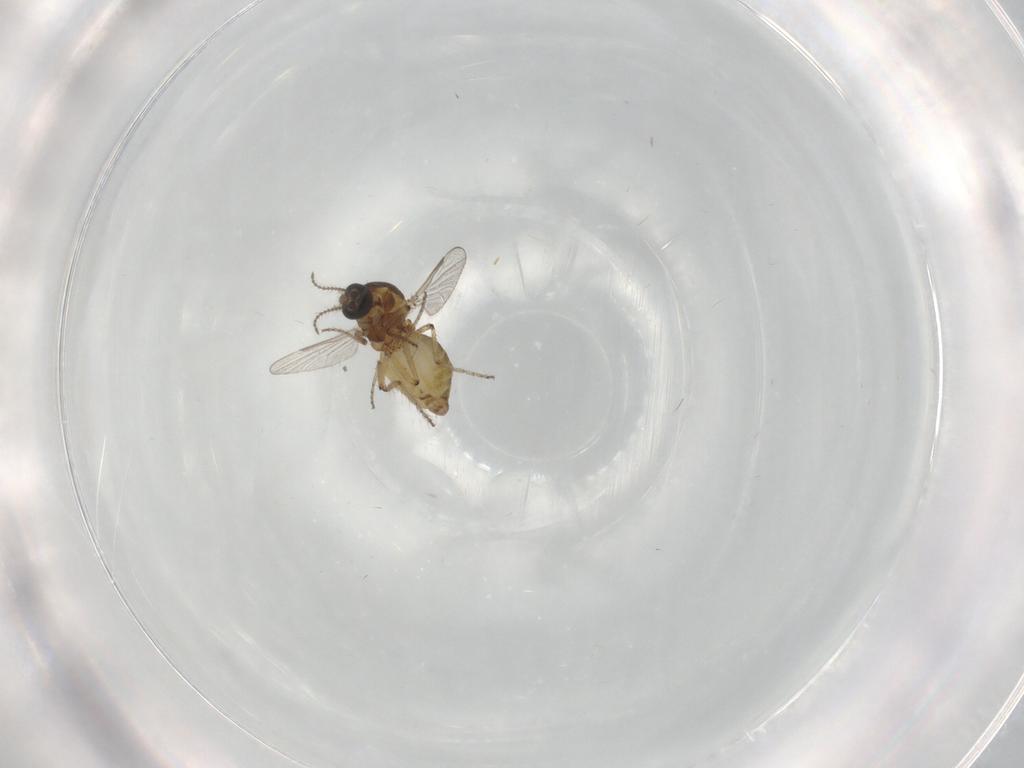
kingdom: Animalia
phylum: Arthropoda
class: Insecta
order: Diptera
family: Ceratopogonidae
